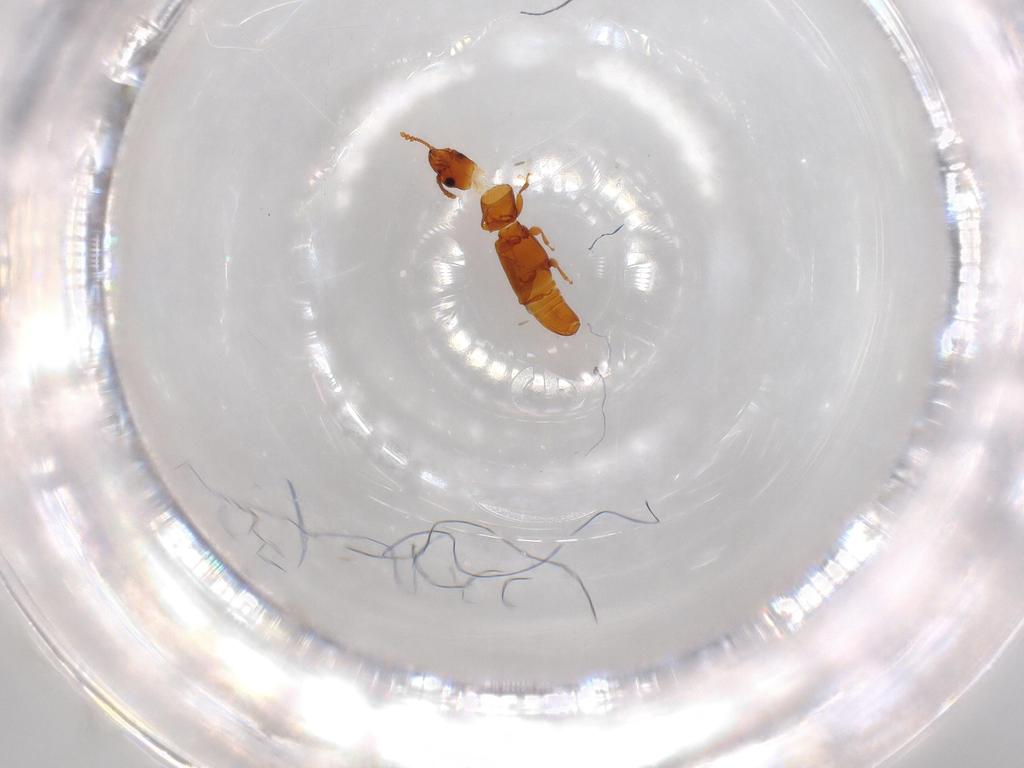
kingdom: Animalia
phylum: Arthropoda
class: Insecta
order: Coleoptera
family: Smicripidae
